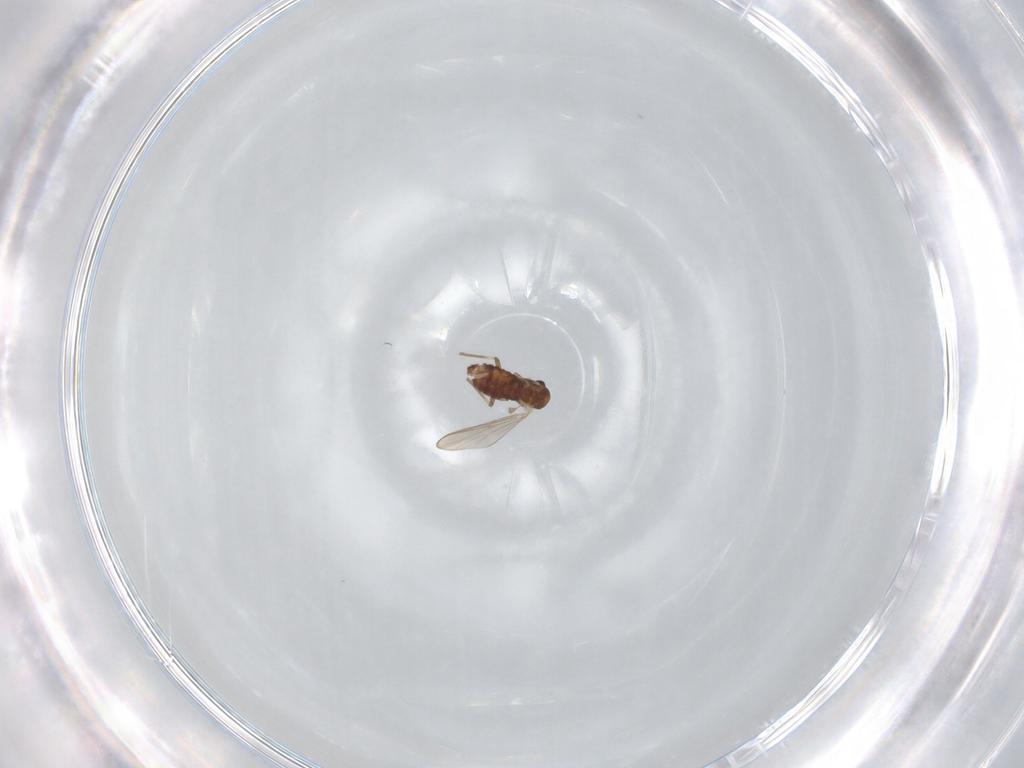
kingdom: Animalia
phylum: Arthropoda
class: Insecta
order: Diptera
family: Chironomidae
